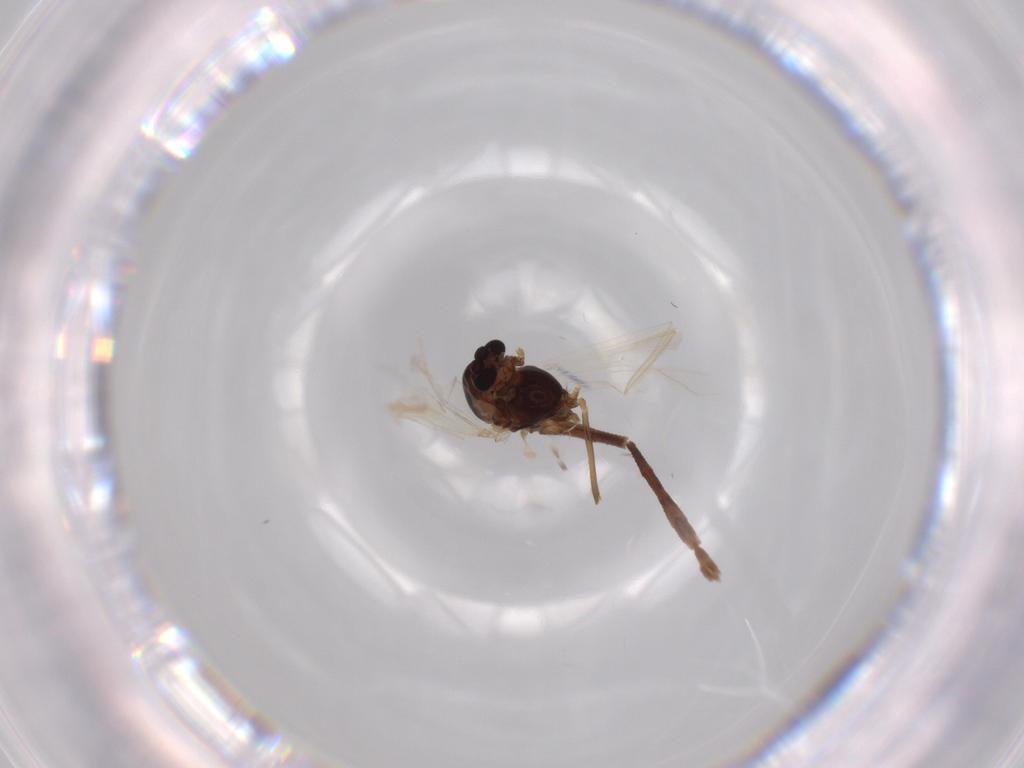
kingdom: Animalia
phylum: Arthropoda
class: Insecta
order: Diptera
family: Chironomidae
